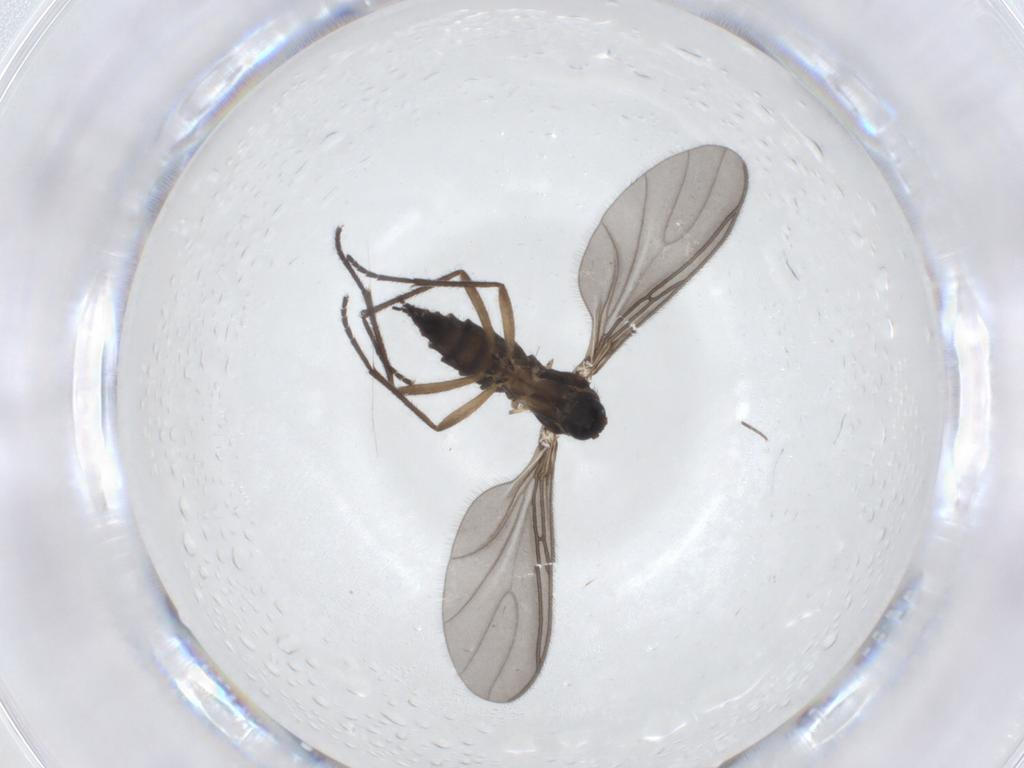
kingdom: Animalia
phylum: Arthropoda
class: Insecta
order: Diptera
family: Sciaridae
